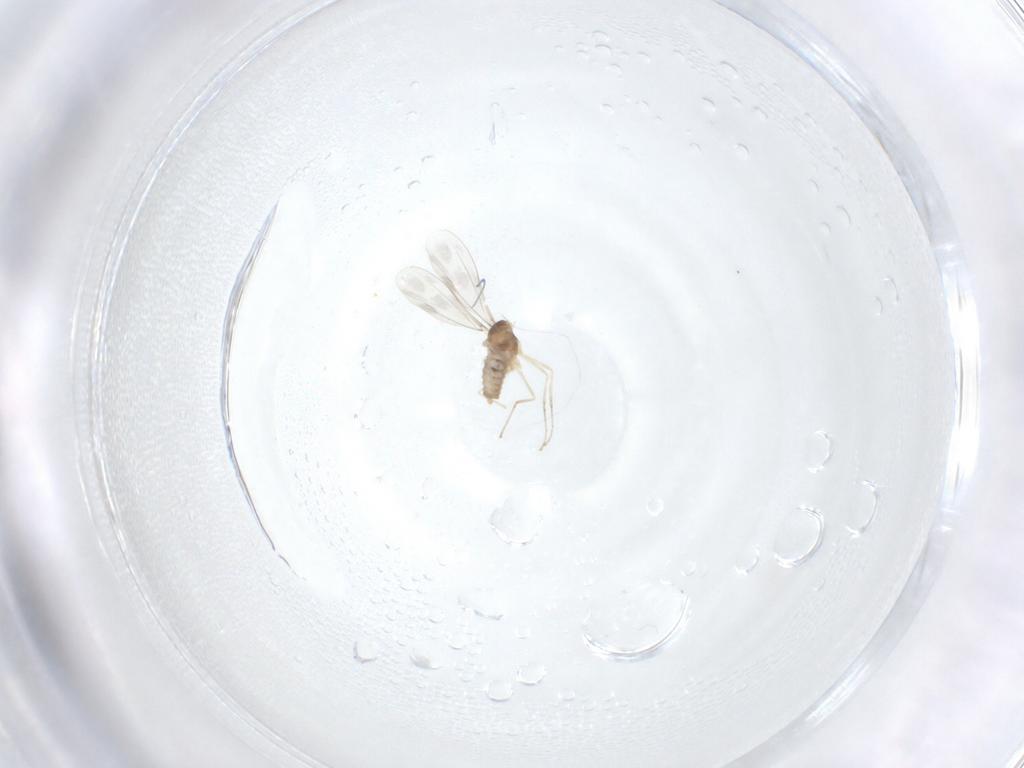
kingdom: Animalia
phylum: Arthropoda
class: Insecta
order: Diptera
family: Cecidomyiidae
